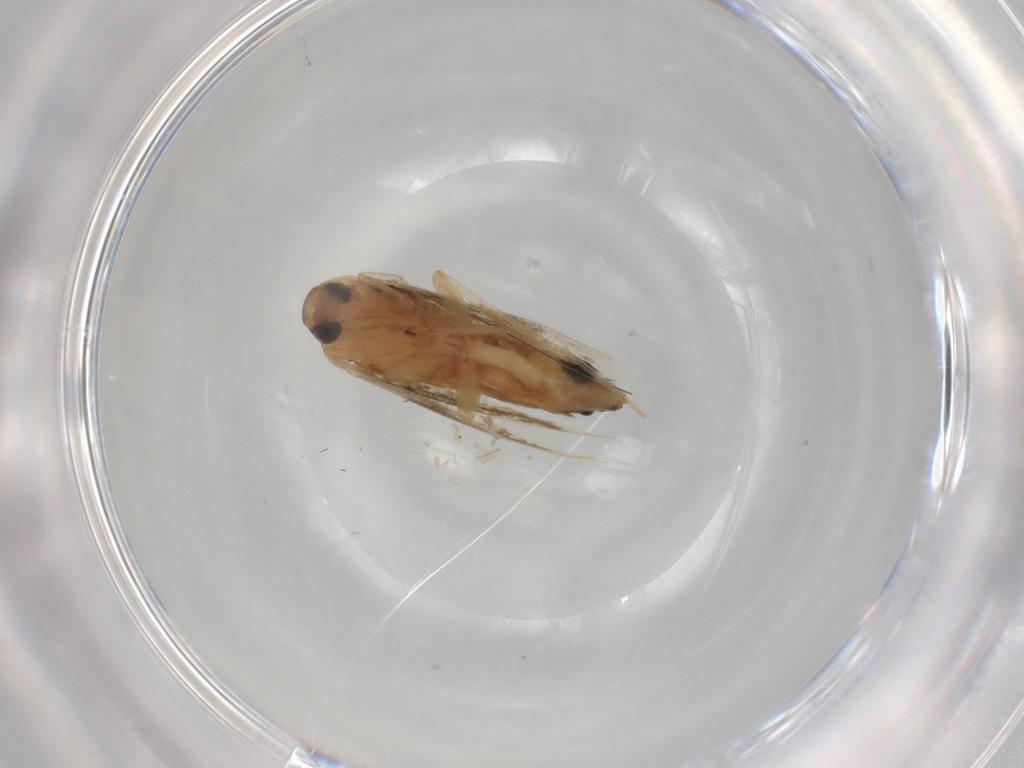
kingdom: Animalia
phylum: Arthropoda
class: Insecta
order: Lepidoptera
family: Cosmopterigidae
